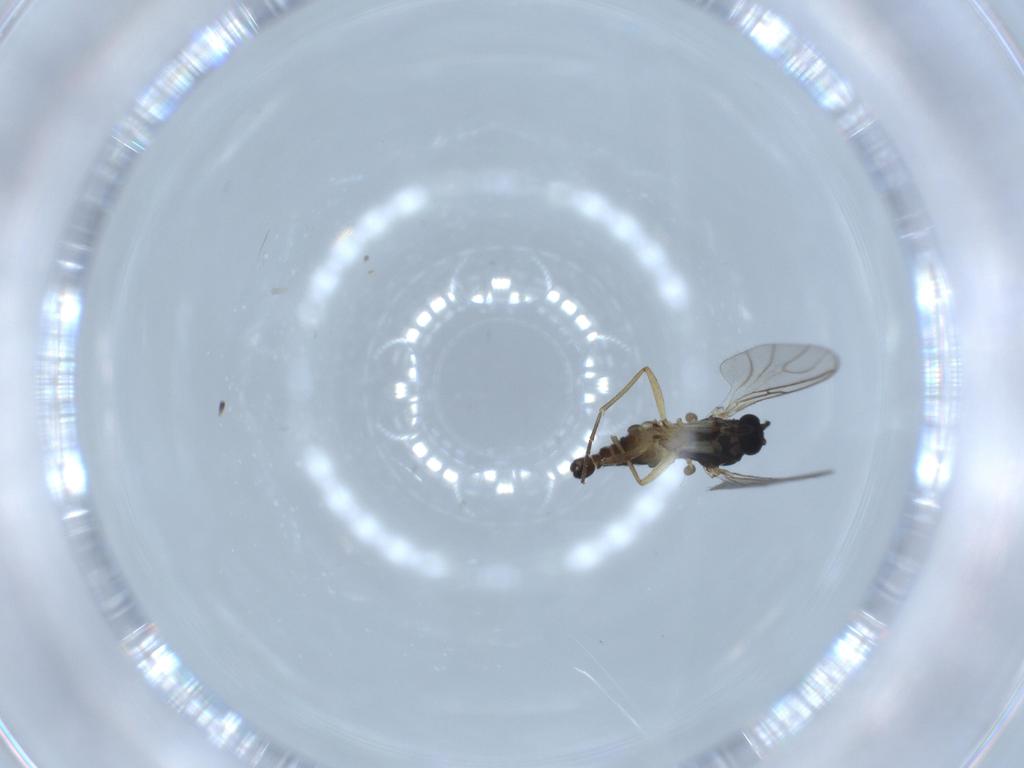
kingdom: Animalia
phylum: Arthropoda
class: Insecta
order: Diptera
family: Sciaridae
